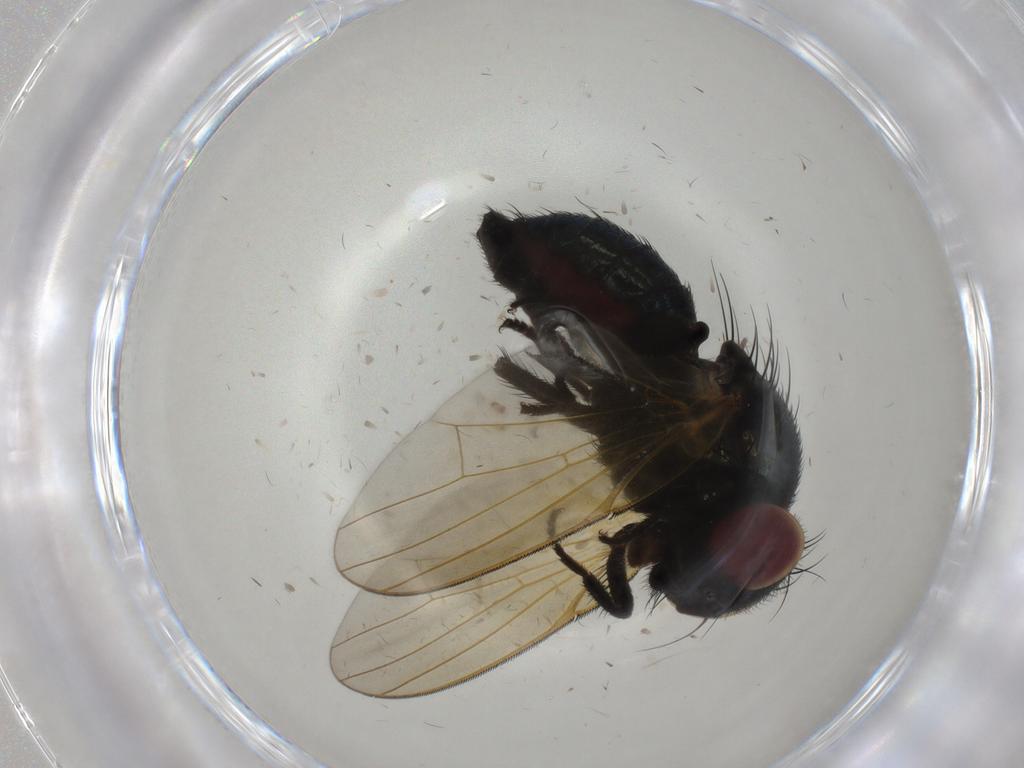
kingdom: Animalia
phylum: Arthropoda
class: Insecta
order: Diptera
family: Lonchaeidae
